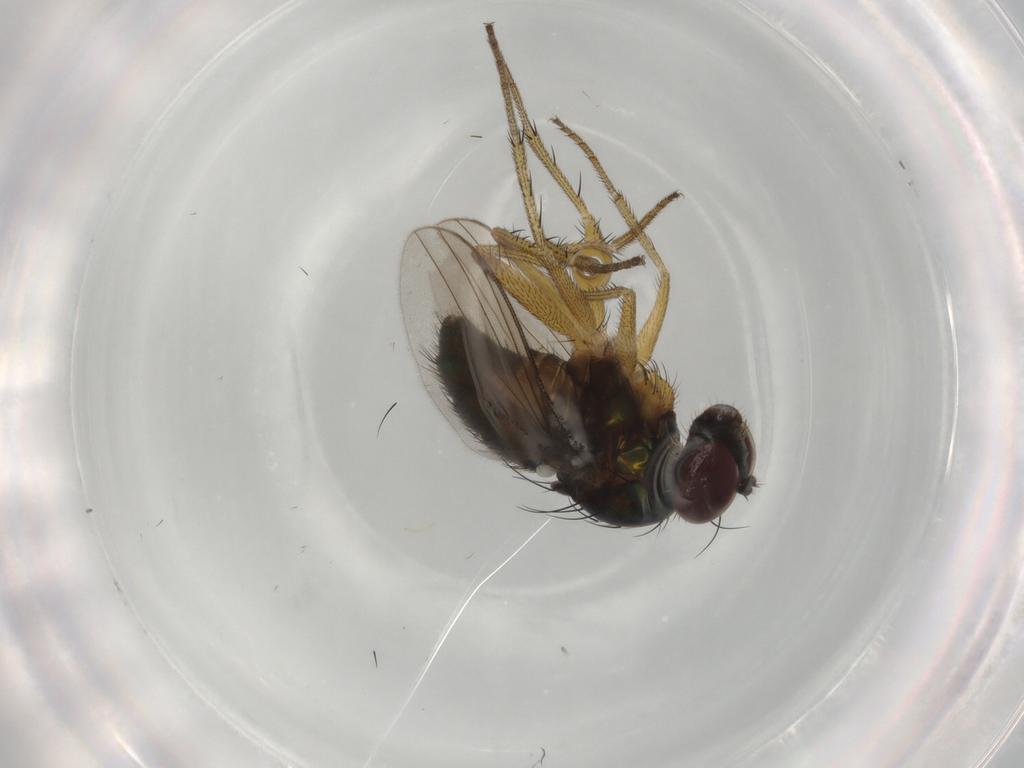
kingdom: Animalia
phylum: Arthropoda
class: Insecta
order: Diptera
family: Dolichopodidae
